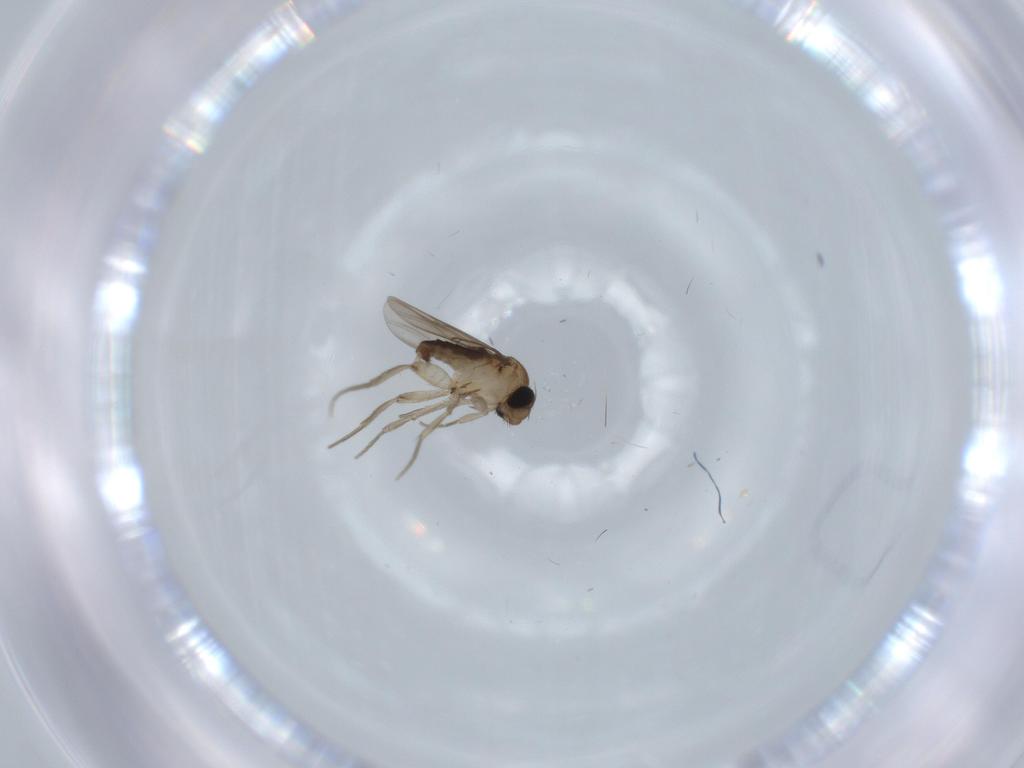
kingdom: Animalia
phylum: Arthropoda
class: Insecta
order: Diptera
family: Phoridae
